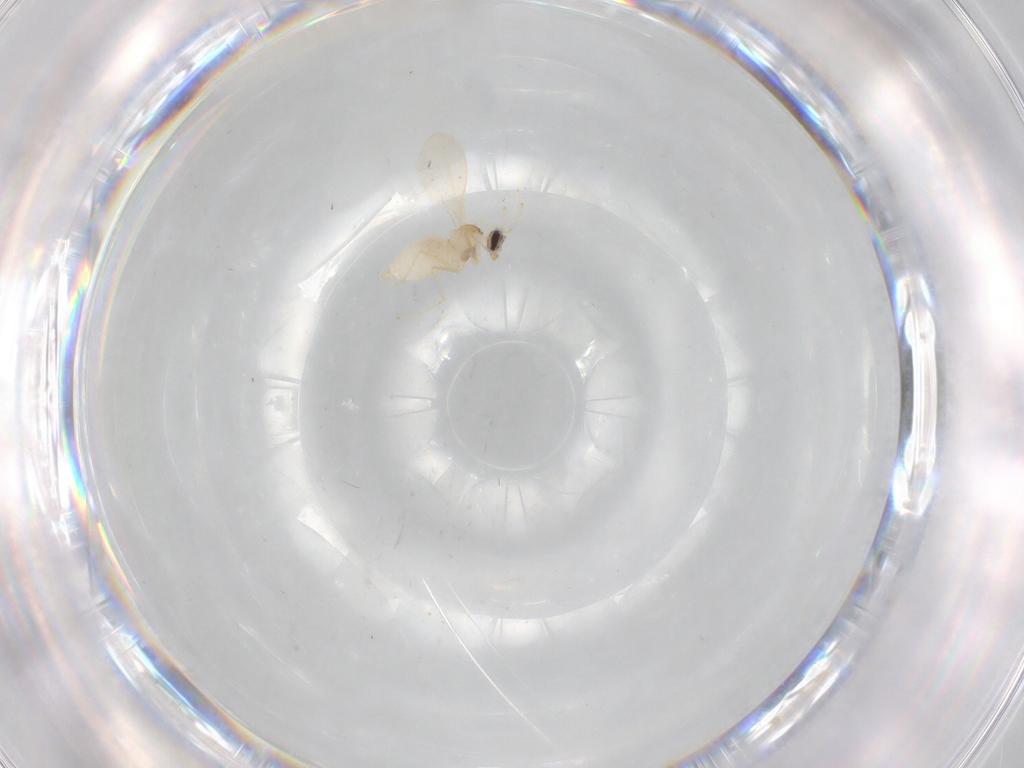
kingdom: Animalia
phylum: Arthropoda
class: Insecta
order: Diptera
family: Cecidomyiidae
